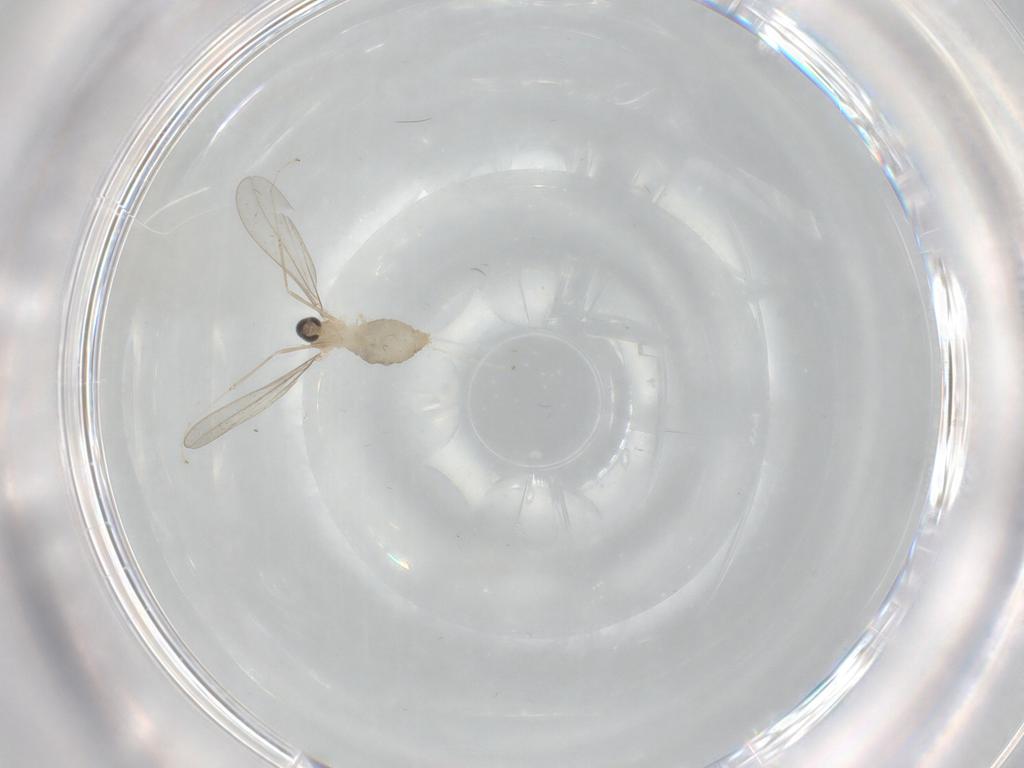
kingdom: Animalia
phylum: Arthropoda
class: Insecta
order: Diptera
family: Cecidomyiidae
